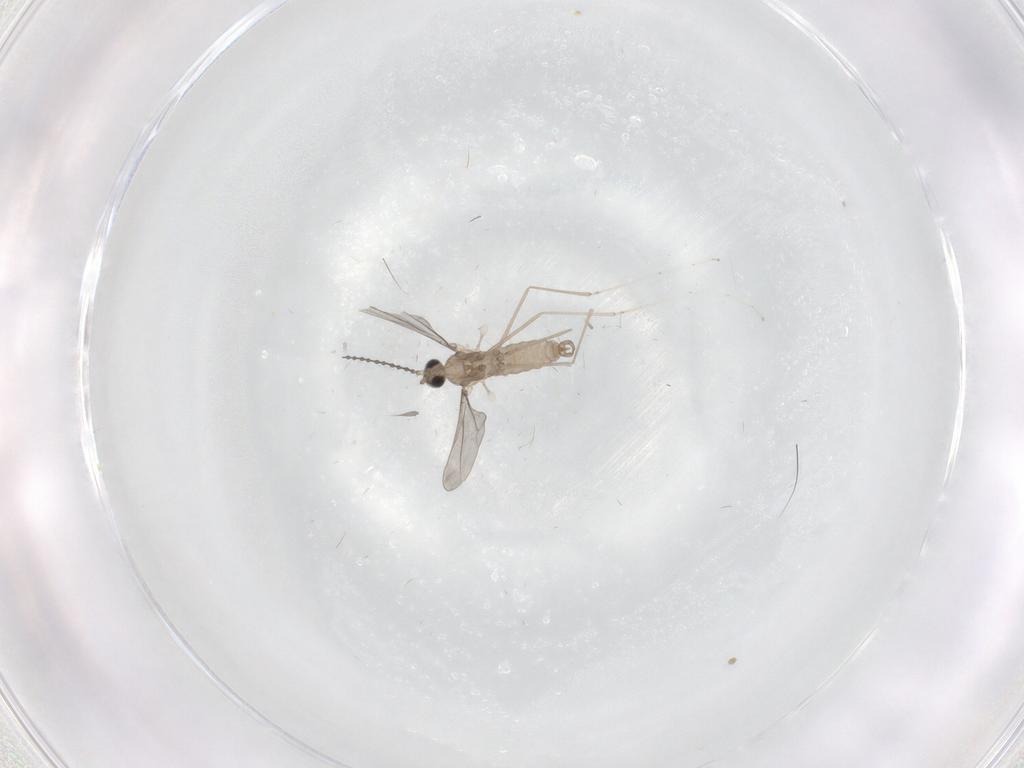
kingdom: Animalia
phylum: Arthropoda
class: Insecta
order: Diptera
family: Cecidomyiidae
